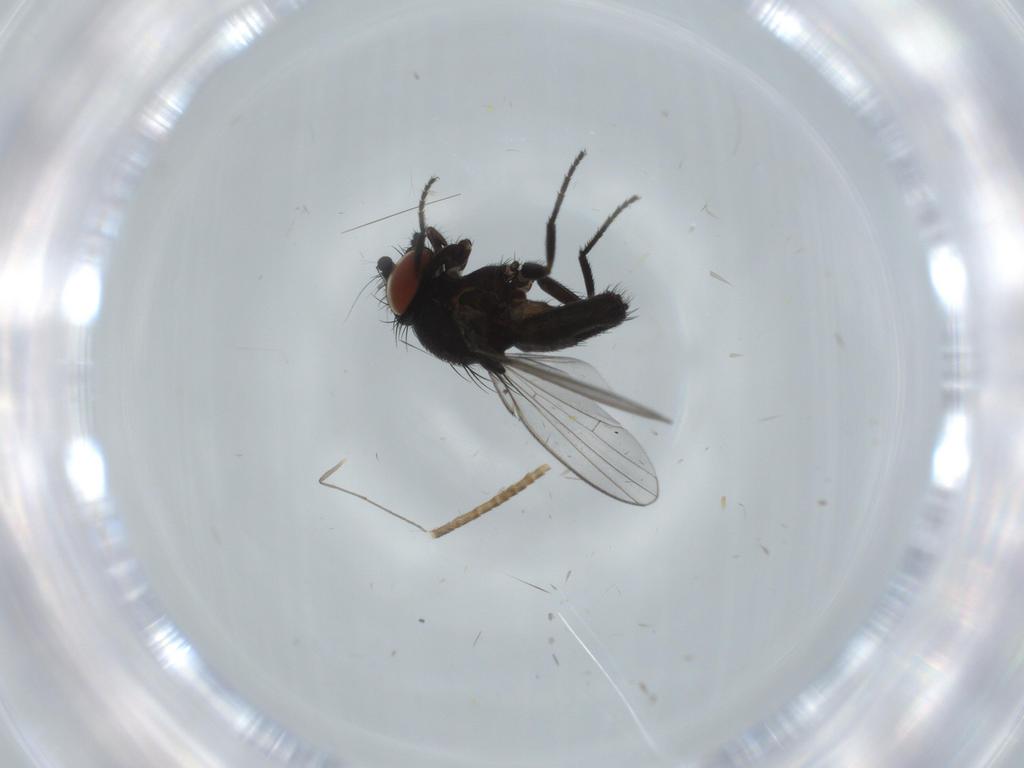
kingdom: Animalia
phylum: Arthropoda
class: Insecta
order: Diptera
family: Milichiidae
